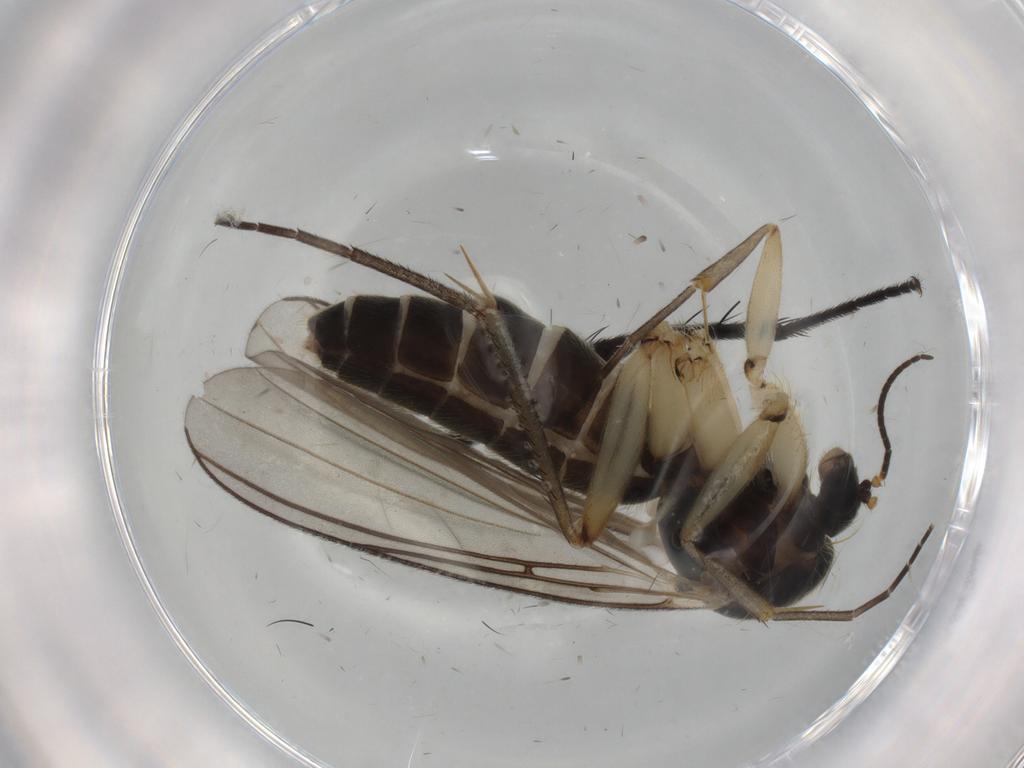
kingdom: Animalia
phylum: Arthropoda
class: Insecta
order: Diptera
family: Mycetophilidae
